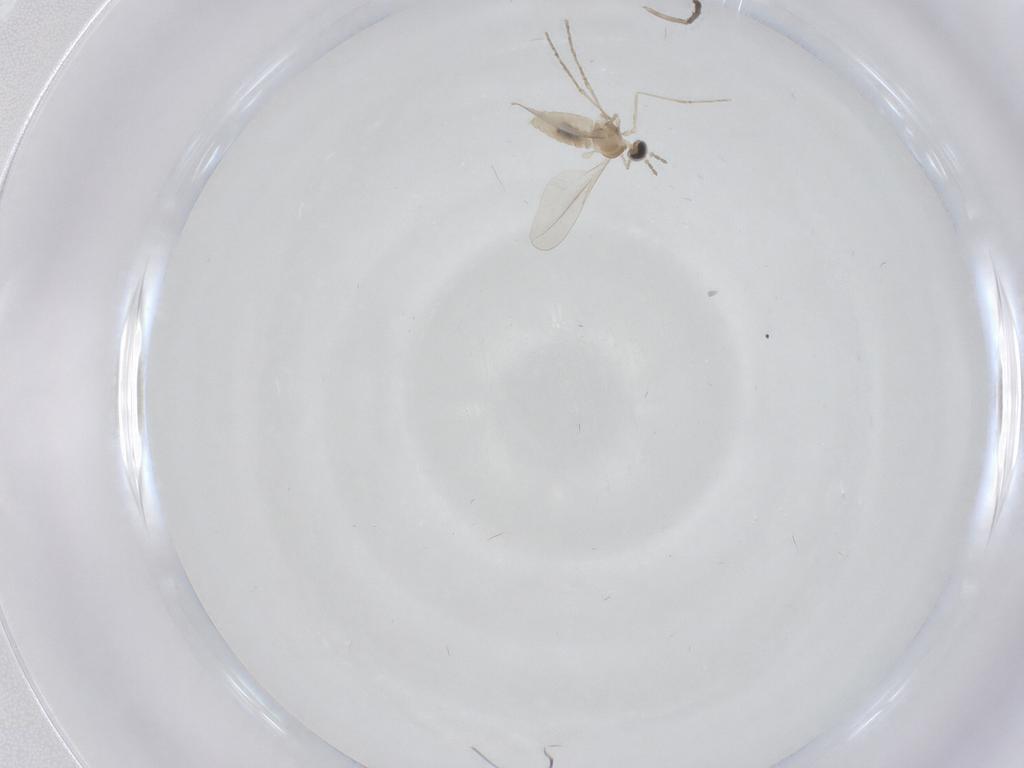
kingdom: Animalia
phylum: Arthropoda
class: Insecta
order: Diptera
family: Cecidomyiidae
